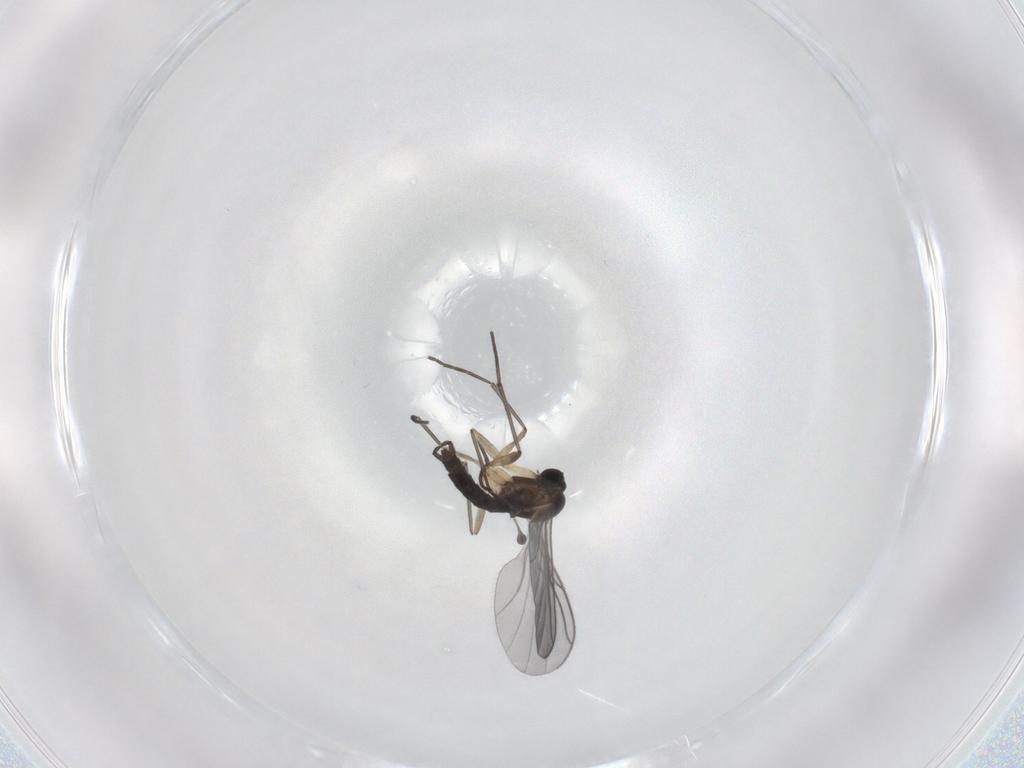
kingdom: Animalia
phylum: Arthropoda
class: Insecta
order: Diptera
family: Sciaridae
